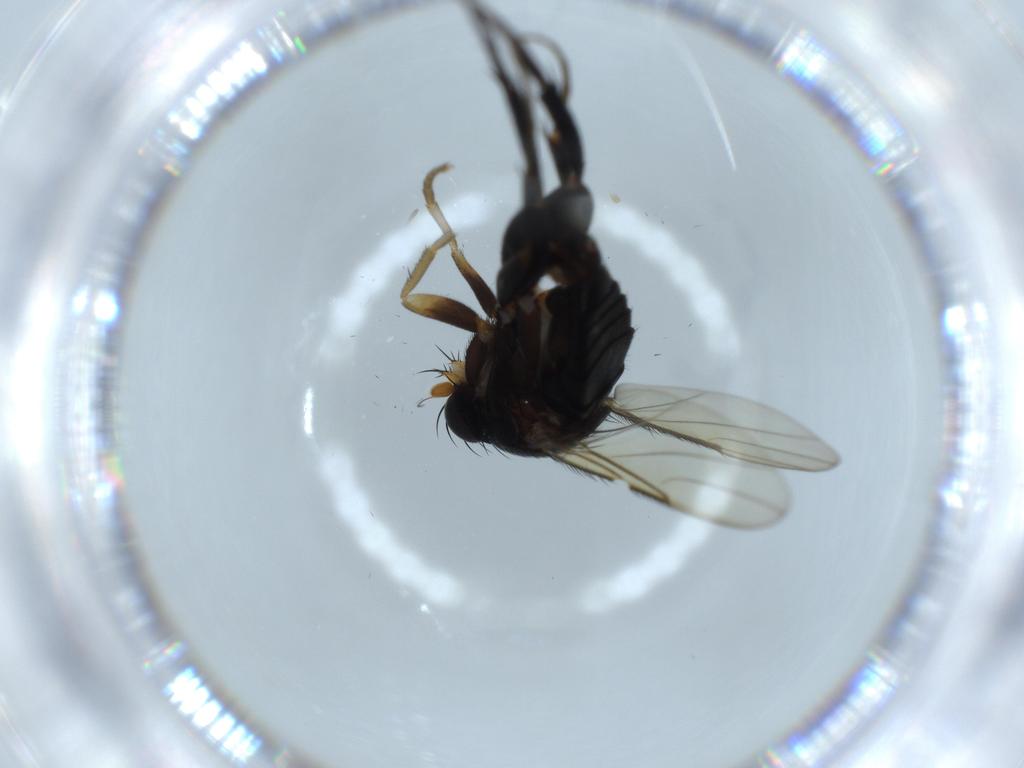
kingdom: Animalia
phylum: Arthropoda
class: Insecta
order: Diptera
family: Phoridae
